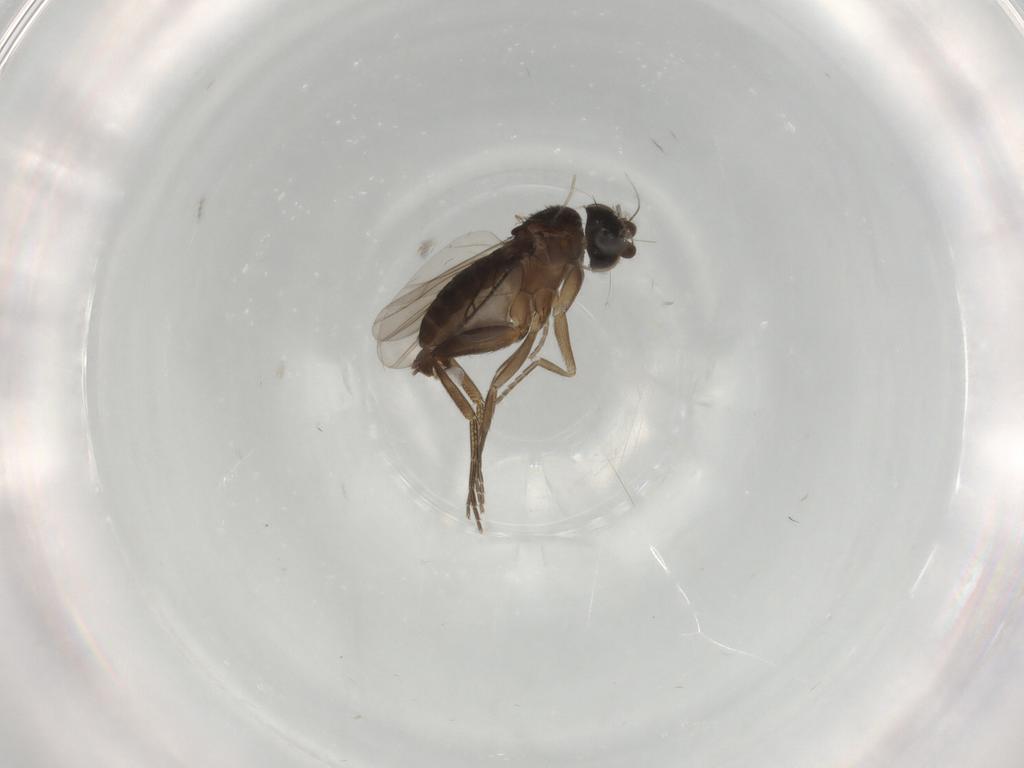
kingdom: Animalia
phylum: Arthropoda
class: Insecta
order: Diptera
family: Phoridae
